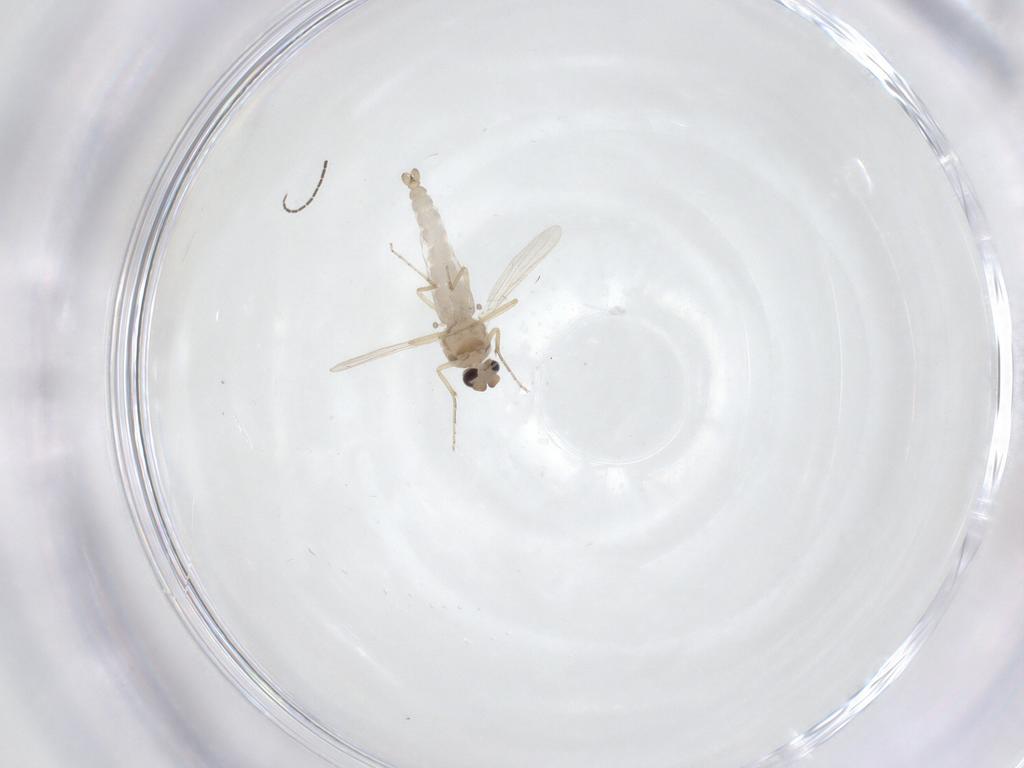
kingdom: Animalia
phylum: Arthropoda
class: Insecta
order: Diptera
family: Ceratopogonidae
